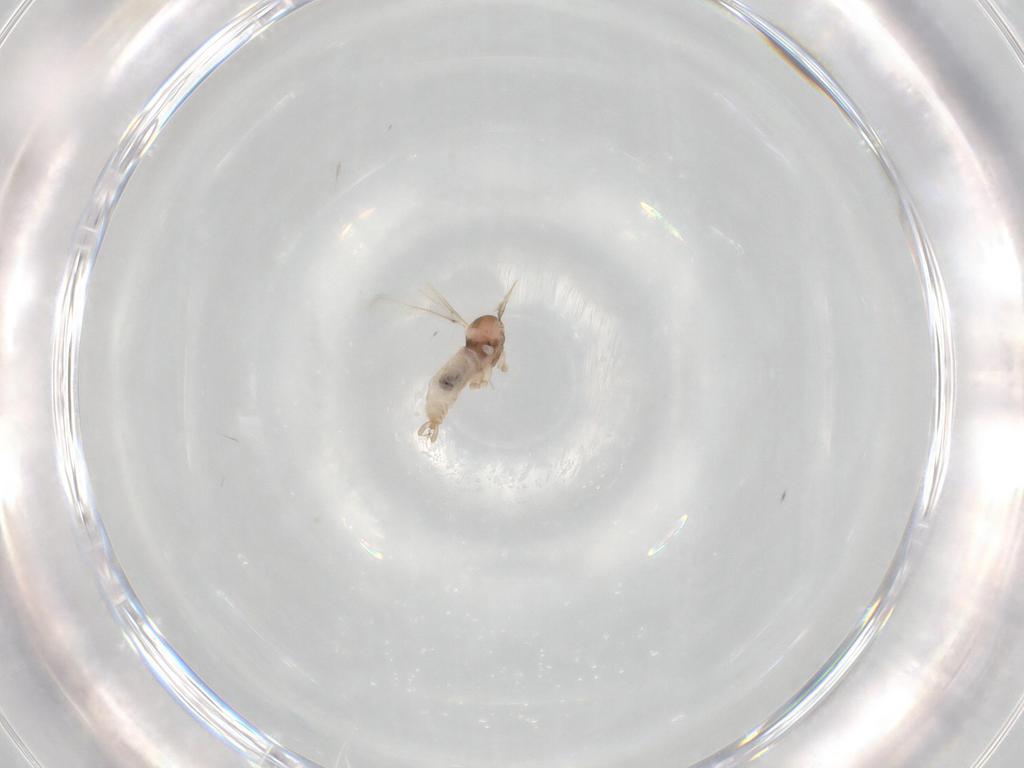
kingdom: Animalia
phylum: Arthropoda
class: Insecta
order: Diptera
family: Cecidomyiidae
